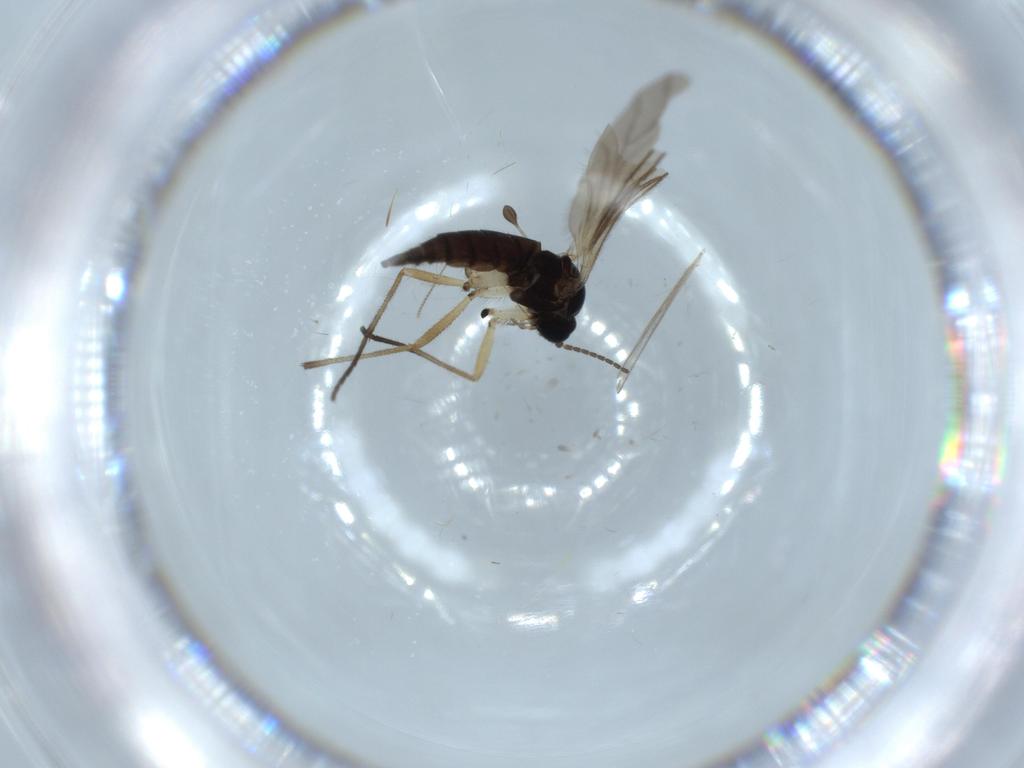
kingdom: Animalia
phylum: Arthropoda
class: Insecta
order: Diptera
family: Sciaridae
